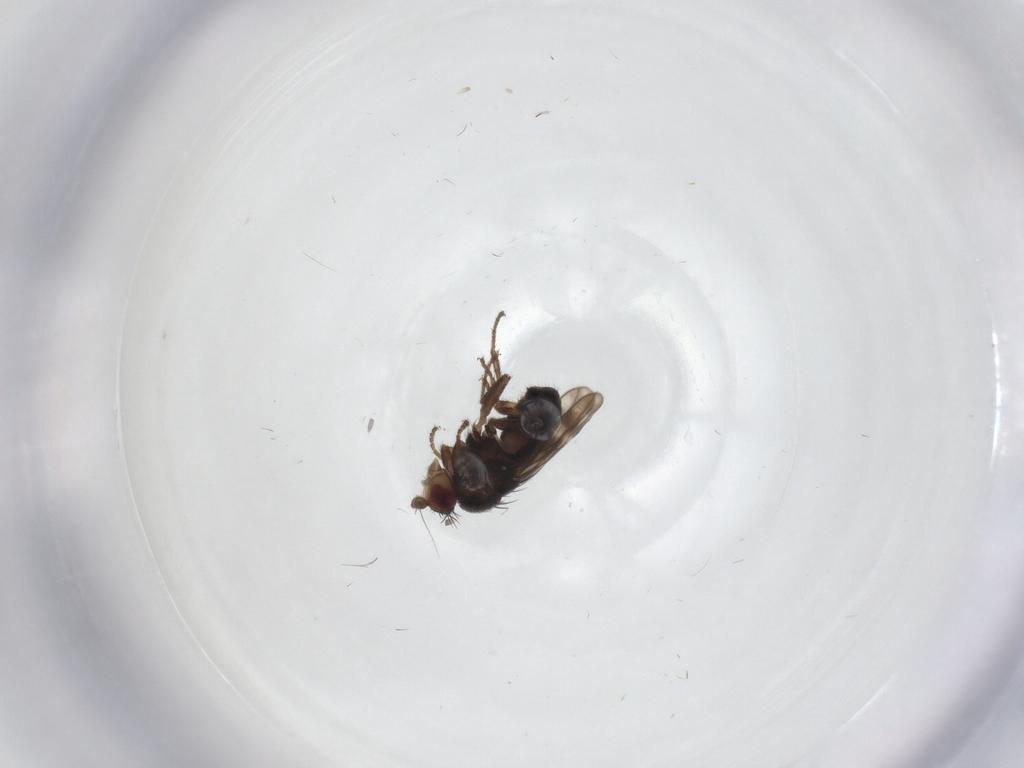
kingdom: Animalia
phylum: Arthropoda
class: Insecta
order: Diptera
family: Sphaeroceridae
